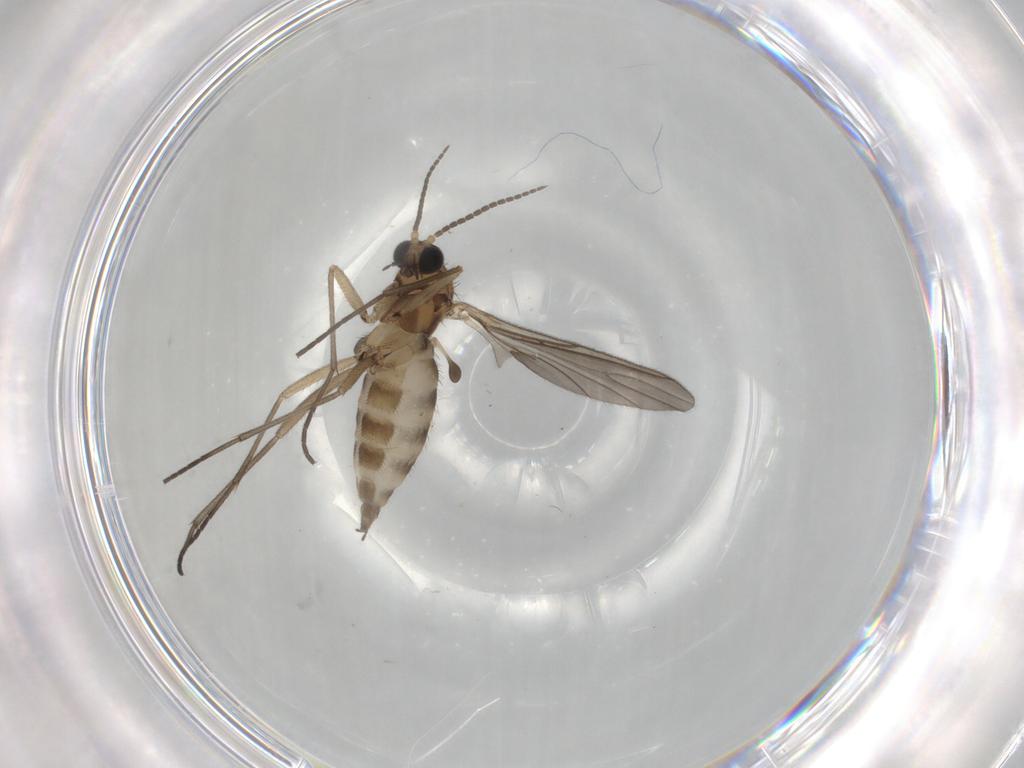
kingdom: Animalia
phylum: Arthropoda
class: Insecta
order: Diptera
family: Sciaridae
